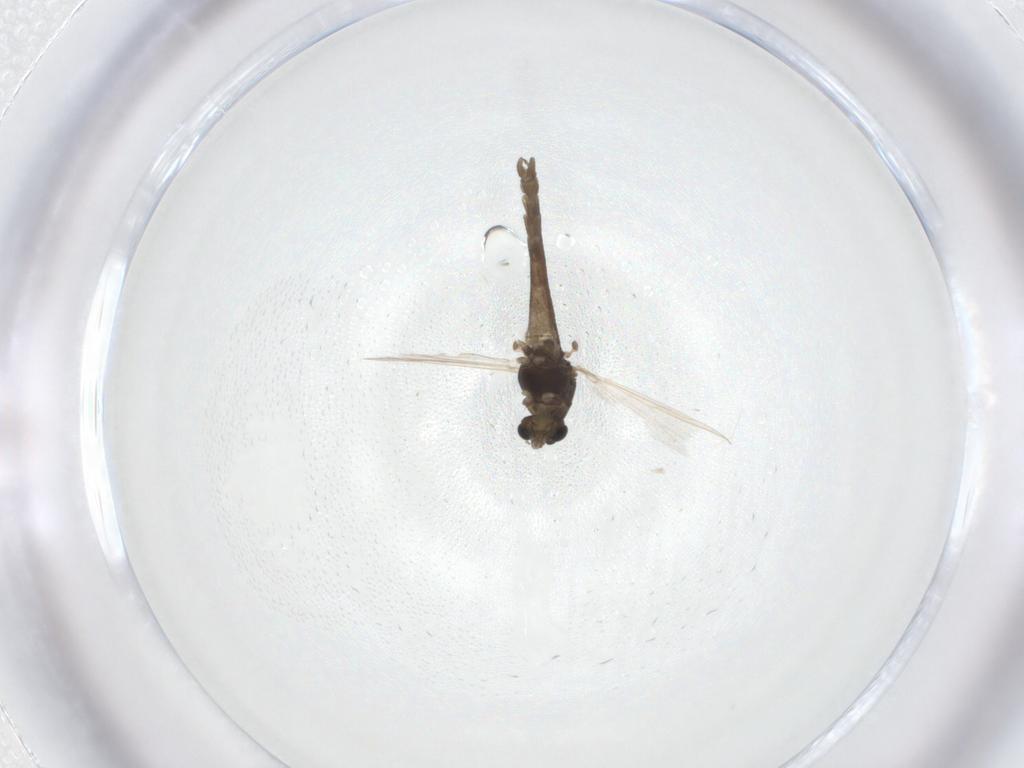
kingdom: Animalia
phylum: Arthropoda
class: Insecta
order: Diptera
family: Chironomidae
